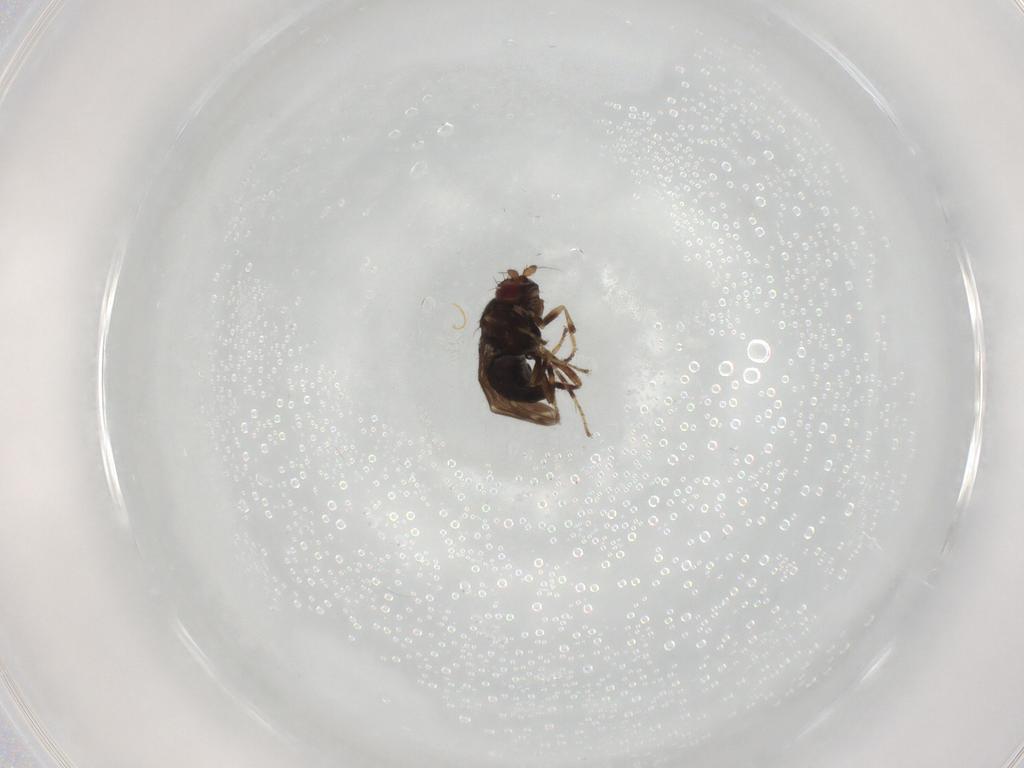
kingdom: Animalia
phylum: Arthropoda
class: Insecta
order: Diptera
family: Sphaeroceridae
